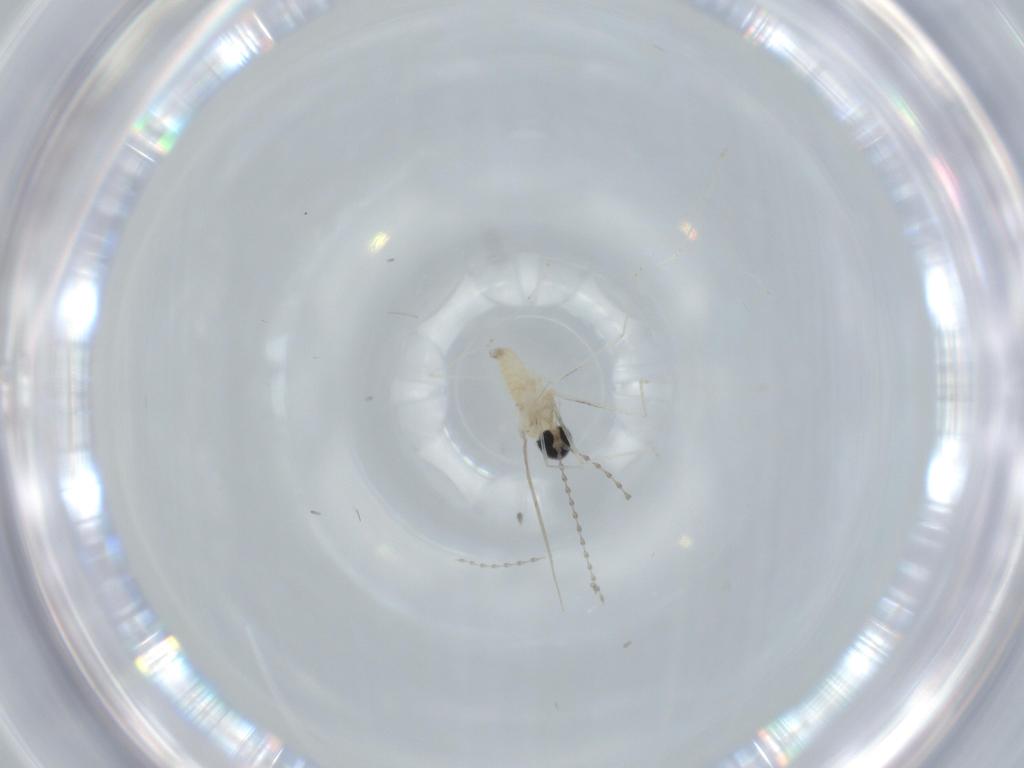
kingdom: Animalia
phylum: Arthropoda
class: Insecta
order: Diptera
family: Cecidomyiidae
